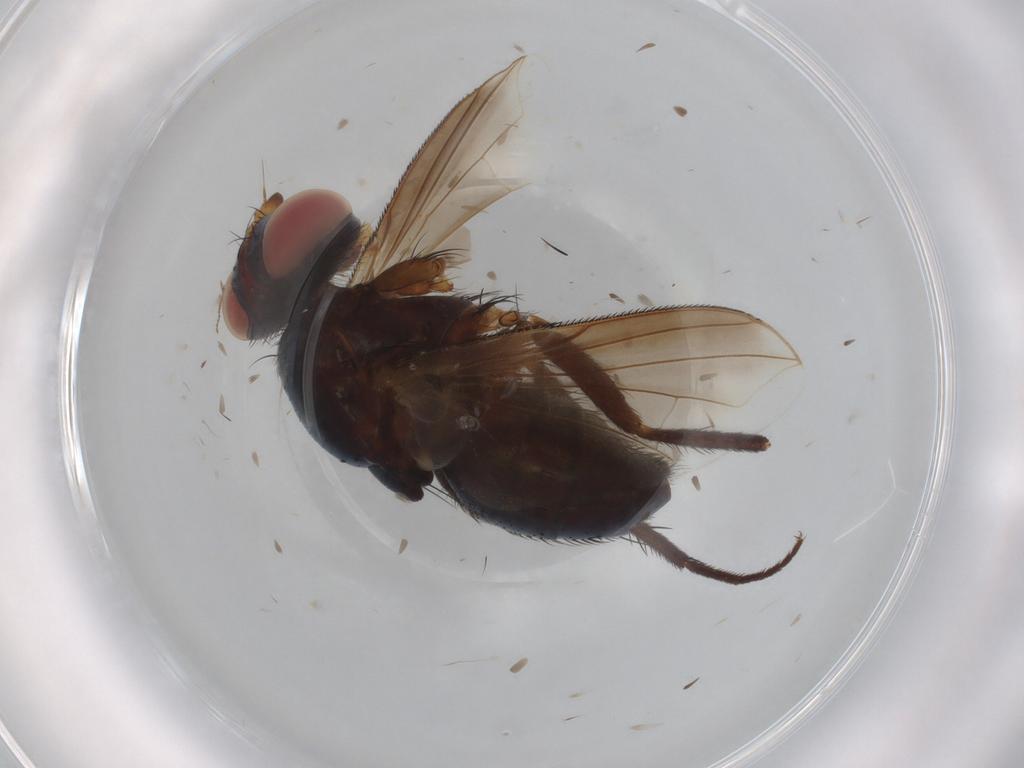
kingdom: Animalia
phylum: Arthropoda
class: Insecta
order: Diptera
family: Tachinidae
